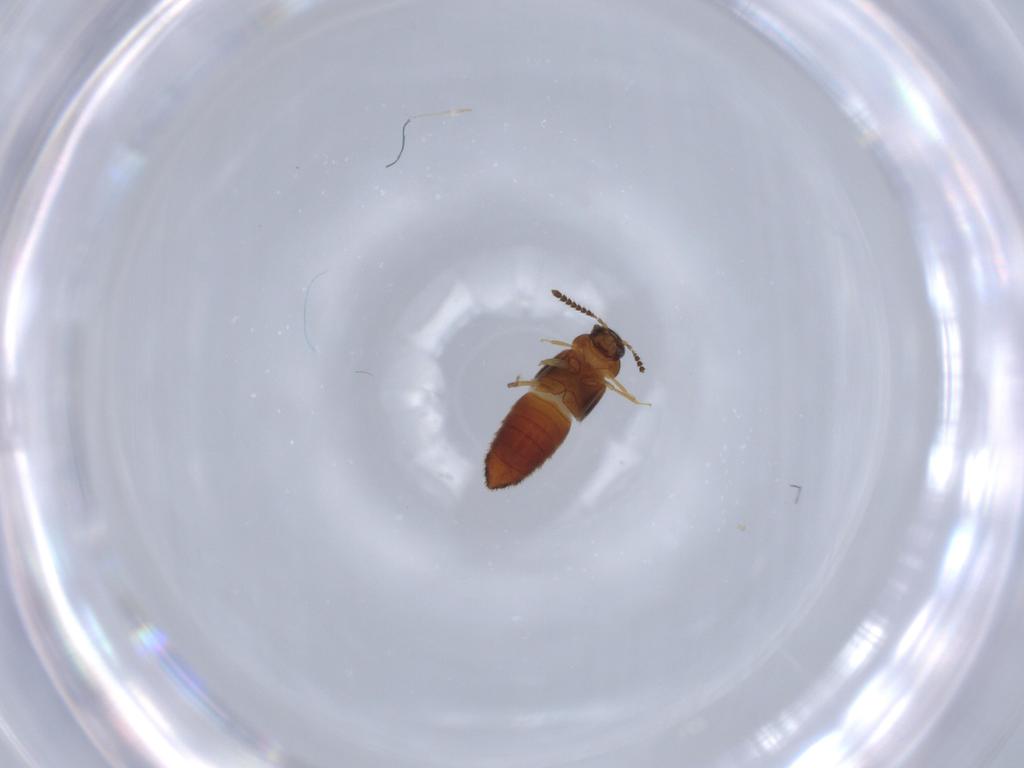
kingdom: Animalia
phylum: Arthropoda
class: Insecta
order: Coleoptera
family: Staphylinidae
